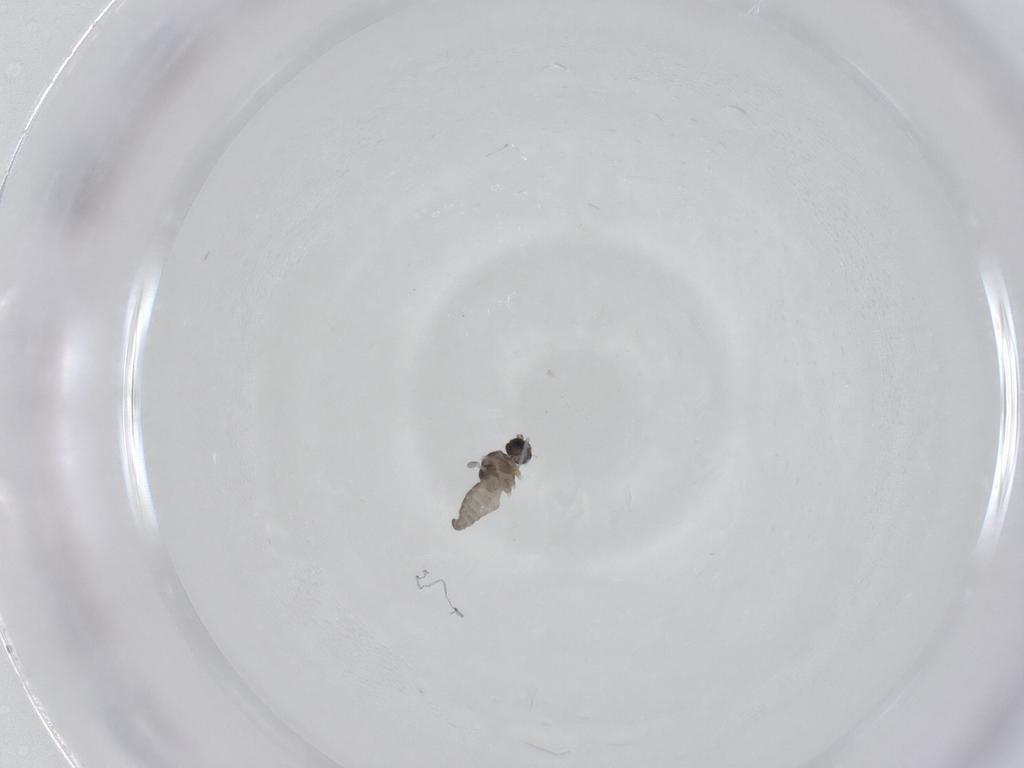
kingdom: Animalia
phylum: Arthropoda
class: Insecta
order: Diptera
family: Cecidomyiidae
